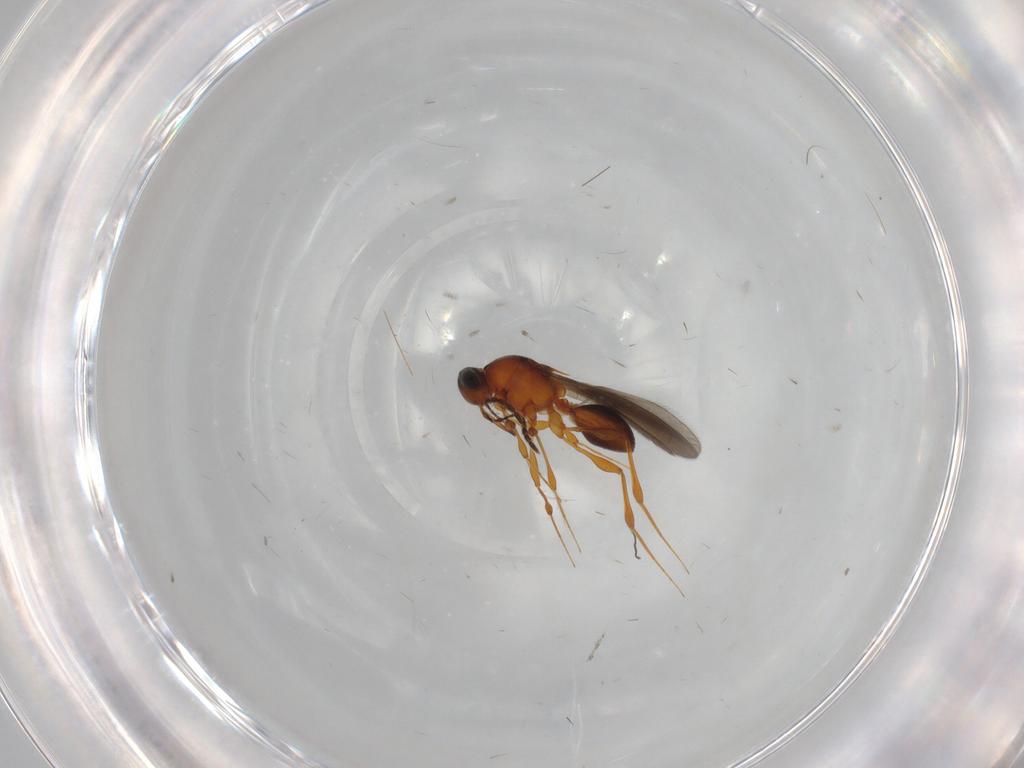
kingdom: Animalia
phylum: Arthropoda
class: Insecta
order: Hymenoptera
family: Platygastridae
